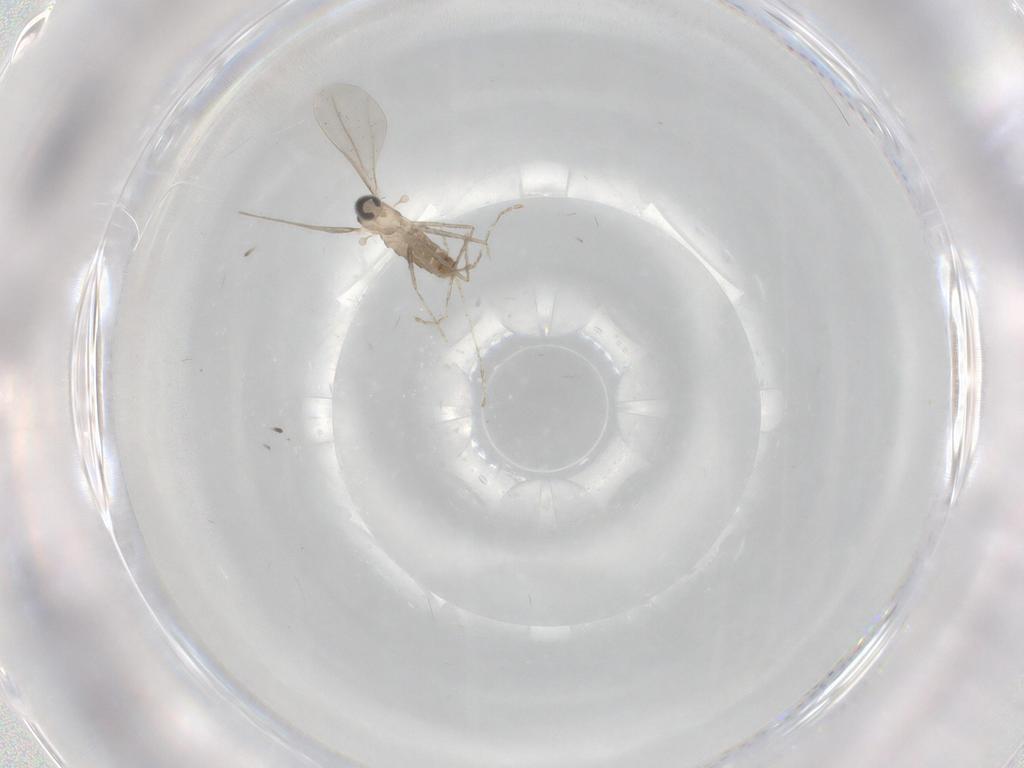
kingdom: Animalia
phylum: Arthropoda
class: Insecta
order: Diptera
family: Cecidomyiidae
